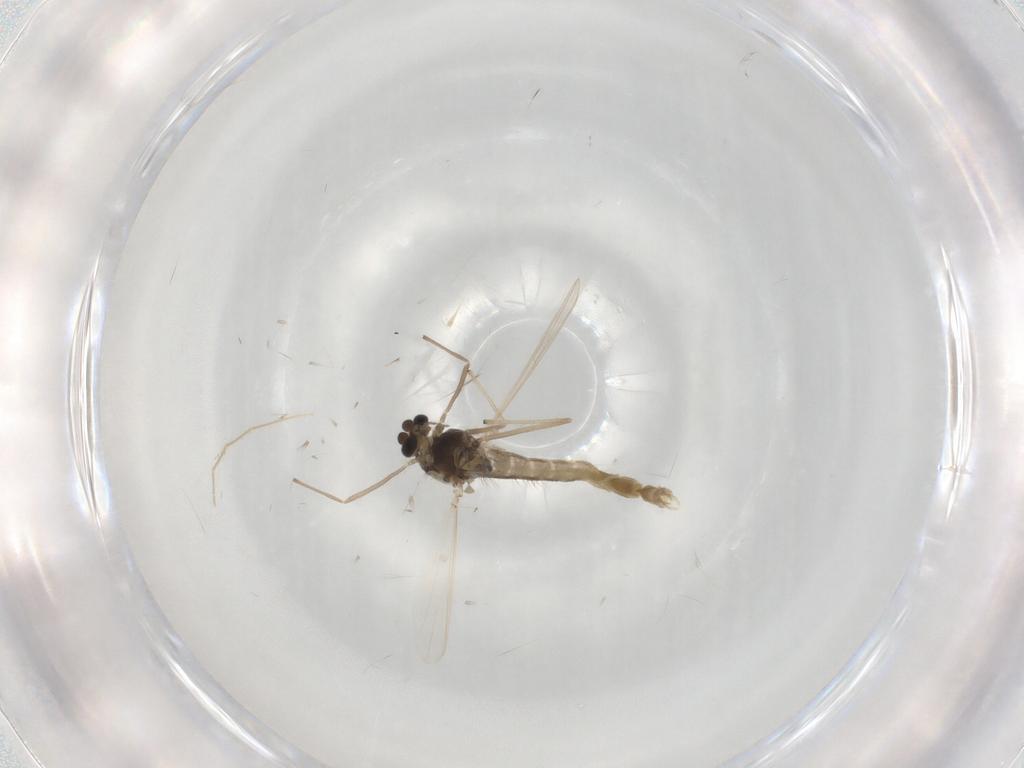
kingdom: Animalia
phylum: Arthropoda
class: Insecta
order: Diptera
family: Chironomidae
